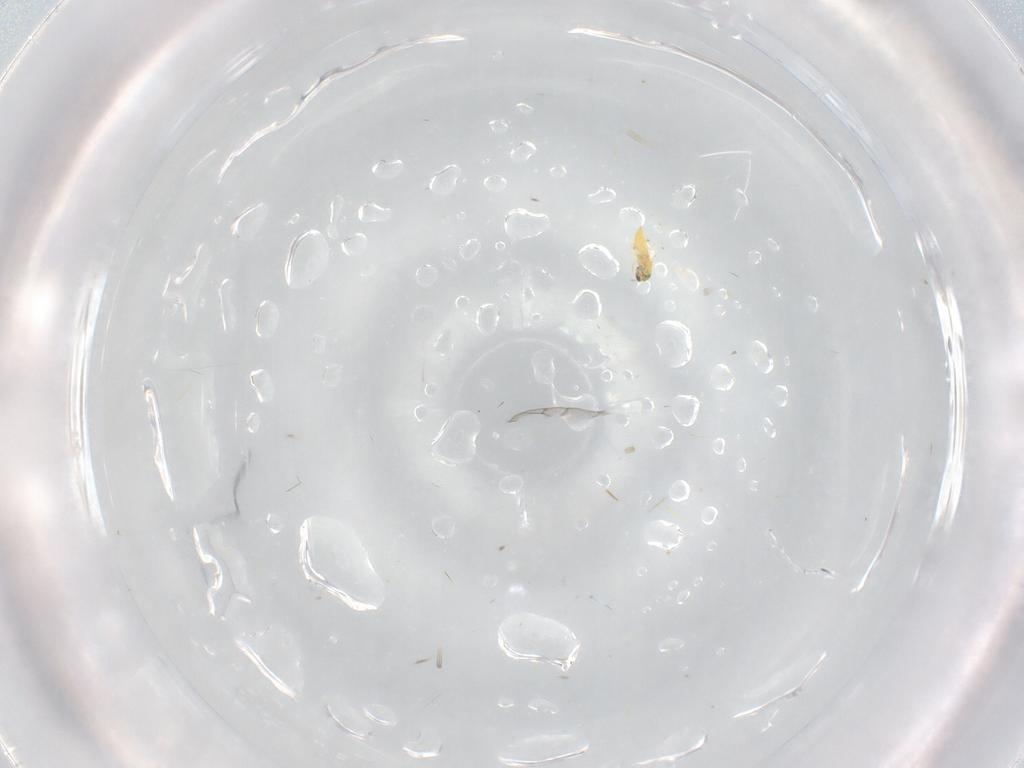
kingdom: Animalia
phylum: Arthropoda
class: Insecta
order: Hymenoptera
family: Trichogrammatidae
